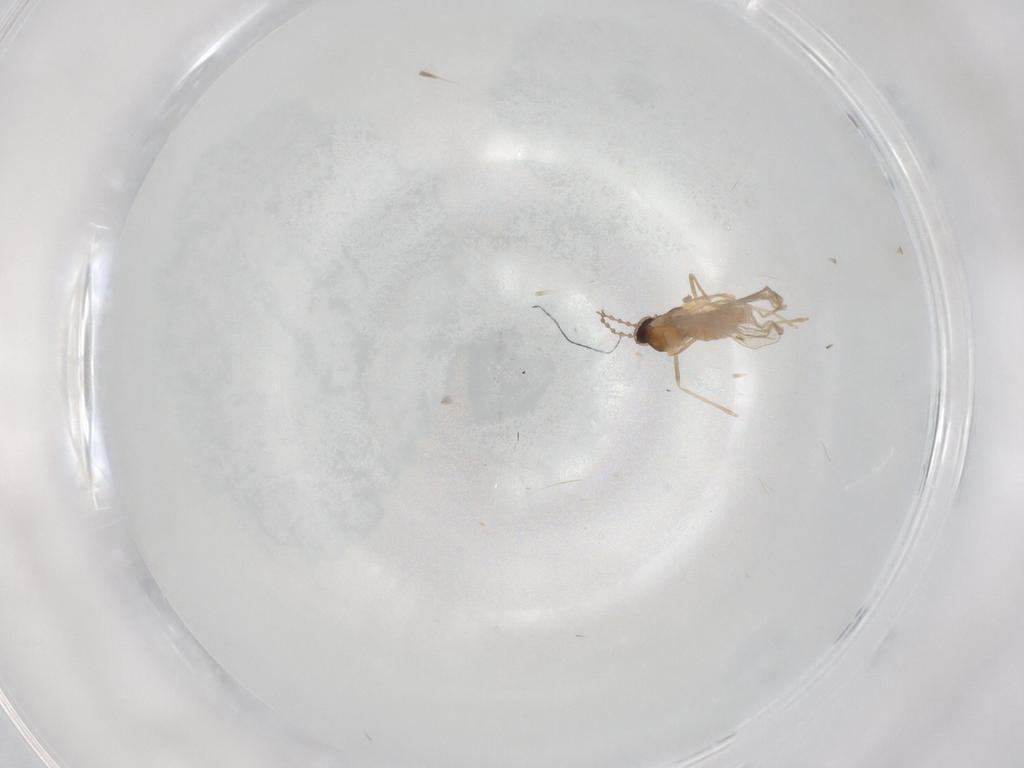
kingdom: Animalia
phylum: Arthropoda
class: Insecta
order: Diptera
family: Cecidomyiidae
